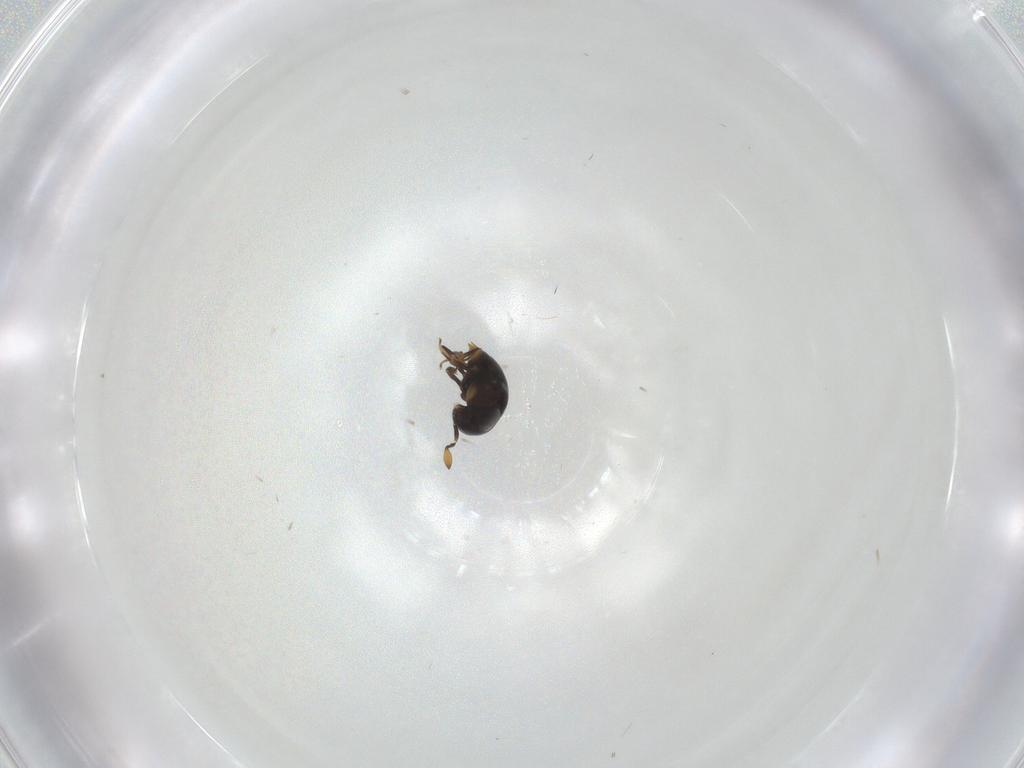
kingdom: Animalia
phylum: Arthropoda
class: Insecta
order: Hymenoptera
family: Scelionidae
